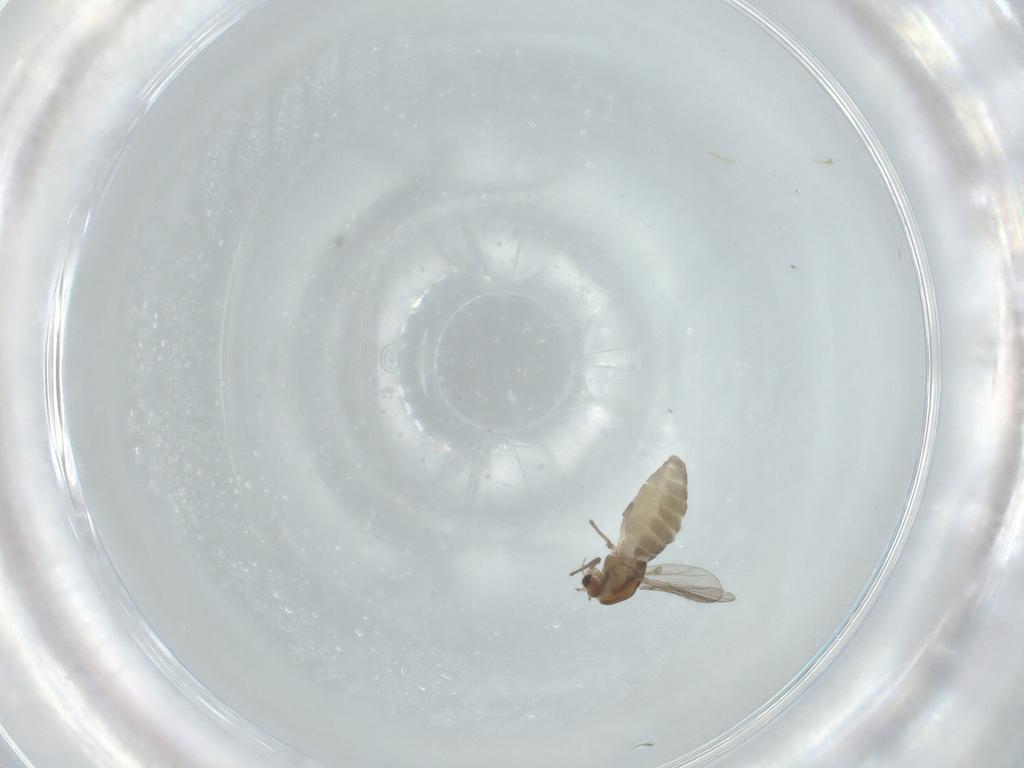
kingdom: Animalia
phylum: Arthropoda
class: Insecta
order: Diptera
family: Chironomidae
